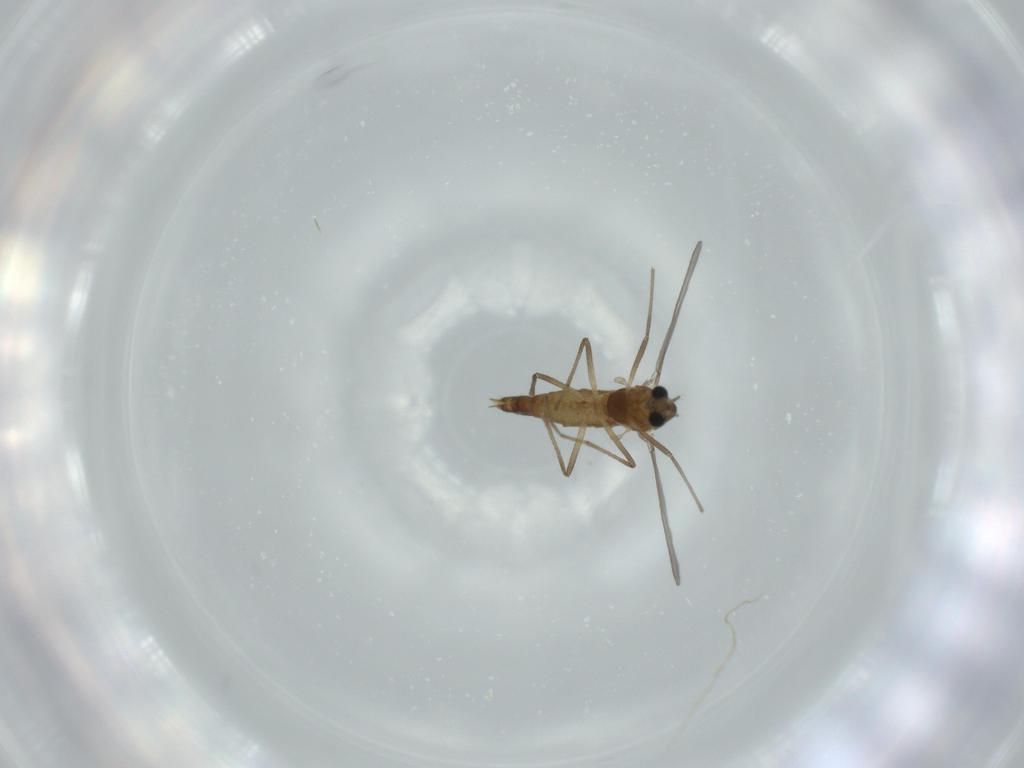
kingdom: Animalia
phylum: Arthropoda
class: Insecta
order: Diptera
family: Chironomidae
